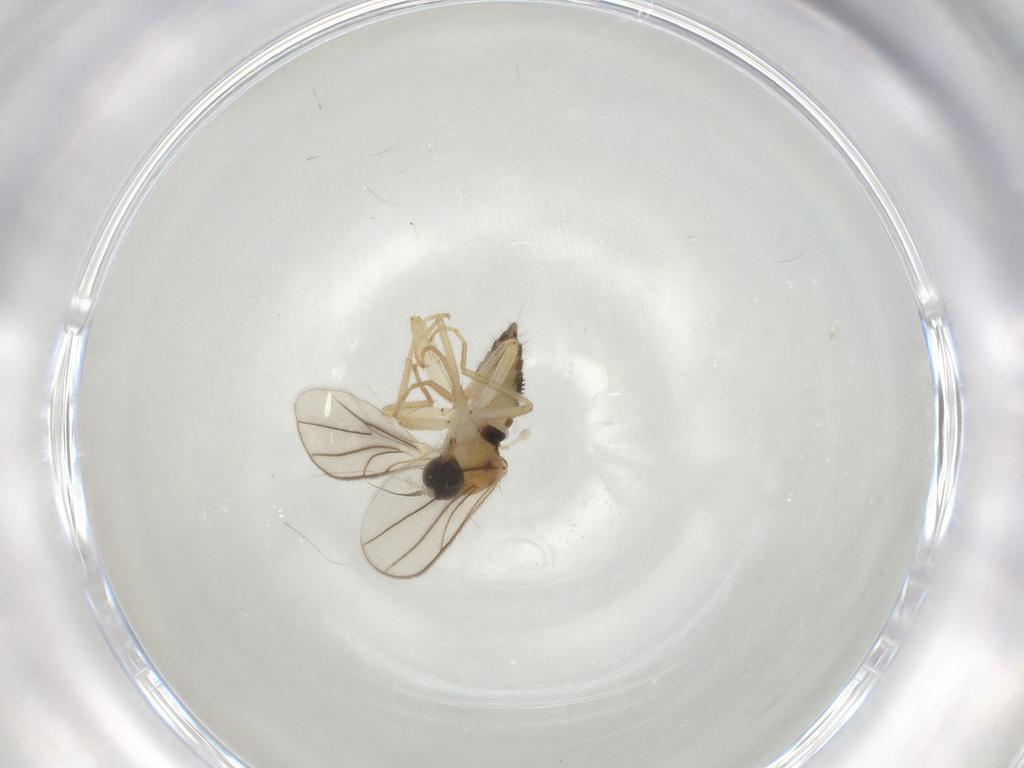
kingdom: Animalia
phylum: Arthropoda
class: Insecta
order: Diptera
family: Hybotidae
